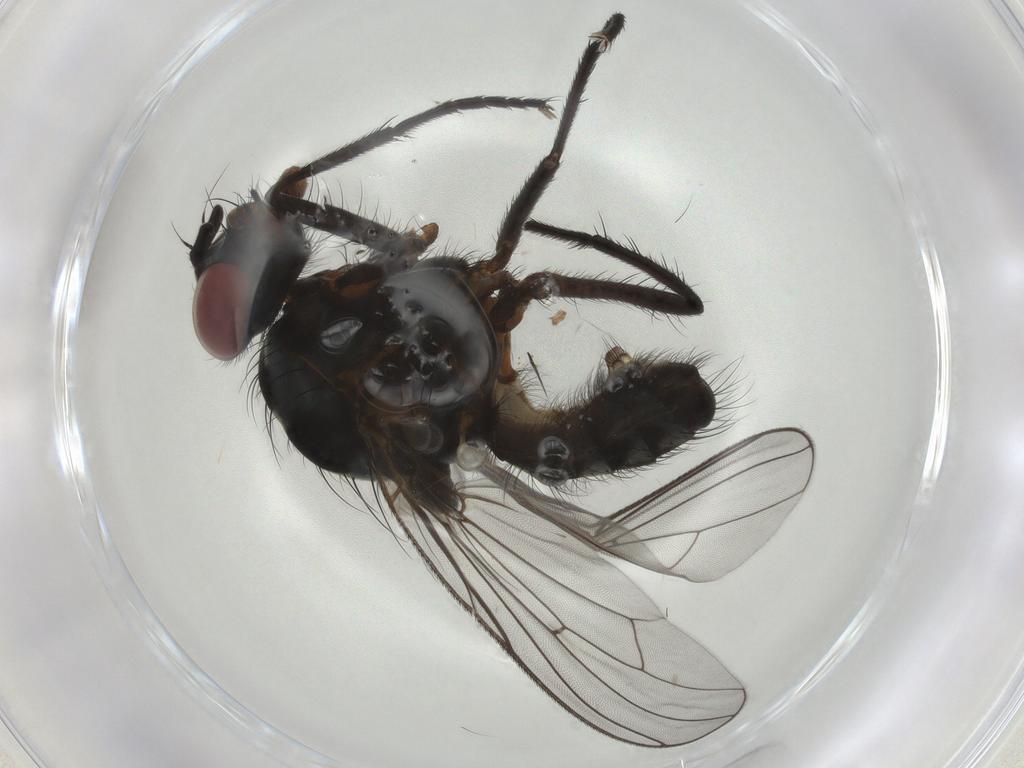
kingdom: Animalia
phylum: Arthropoda
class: Insecta
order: Diptera
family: Anthomyiidae
